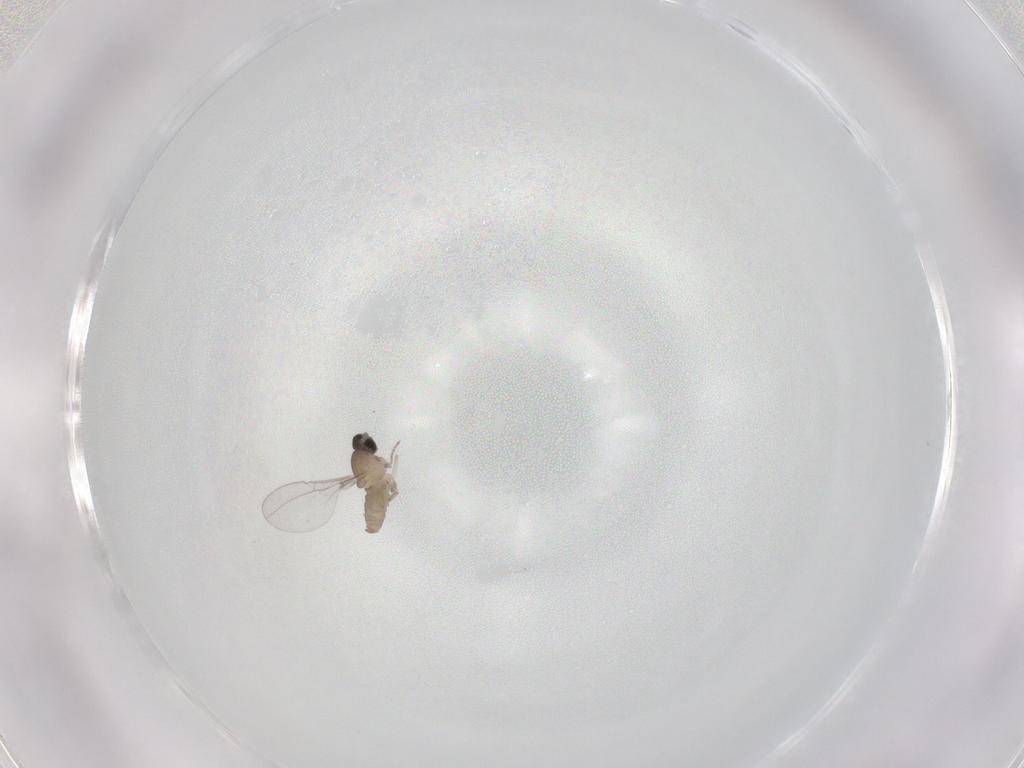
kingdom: Animalia
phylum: Arthropoda
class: Insecta
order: Diptera
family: Cecidomyiidae
